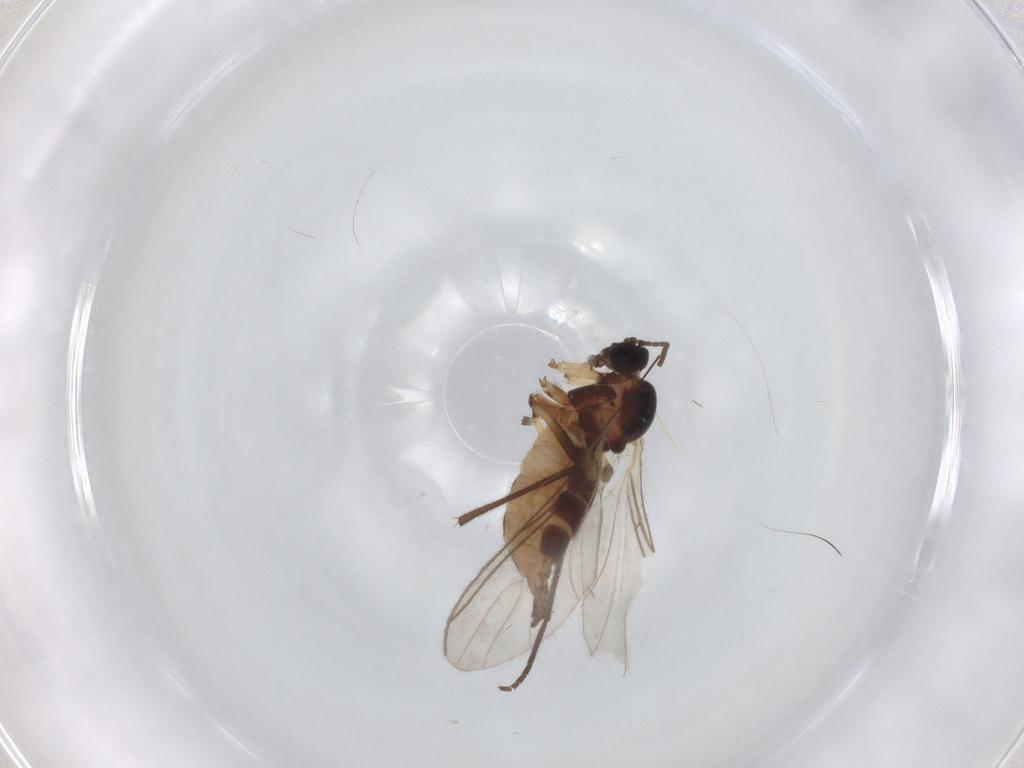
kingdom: Animalia
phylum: Arthropoda
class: Insecta
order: Diptera
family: Sciaridae
